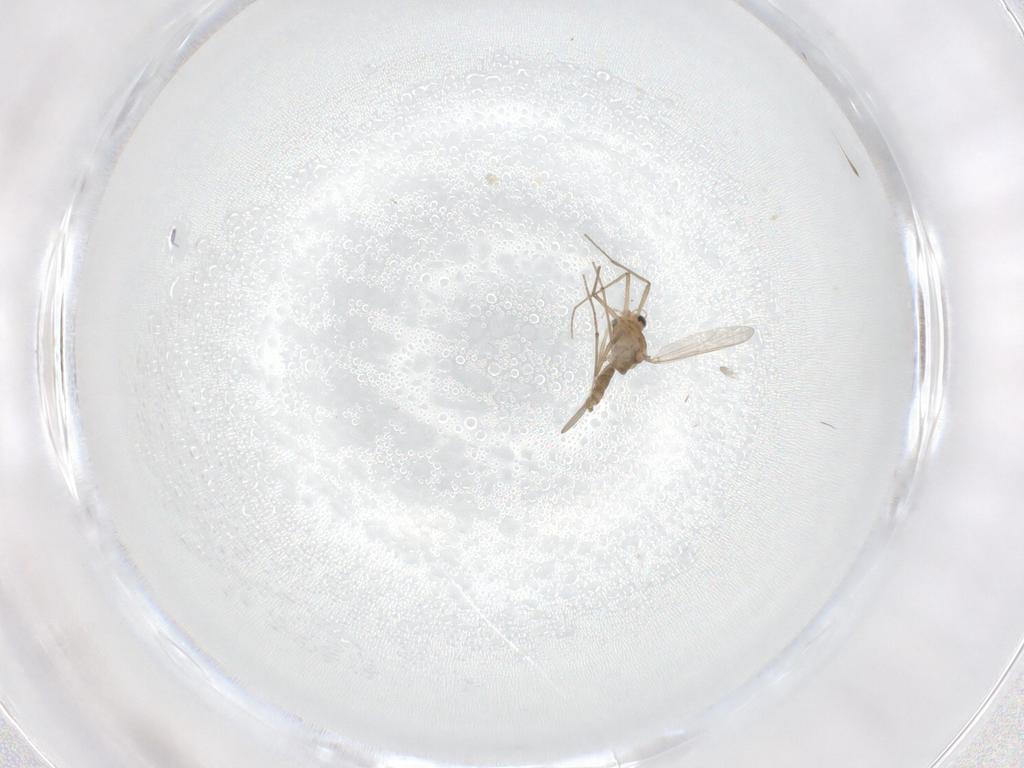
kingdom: Animalia
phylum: Arthropoda
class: Insecta
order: Diptera
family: Chironomidae
